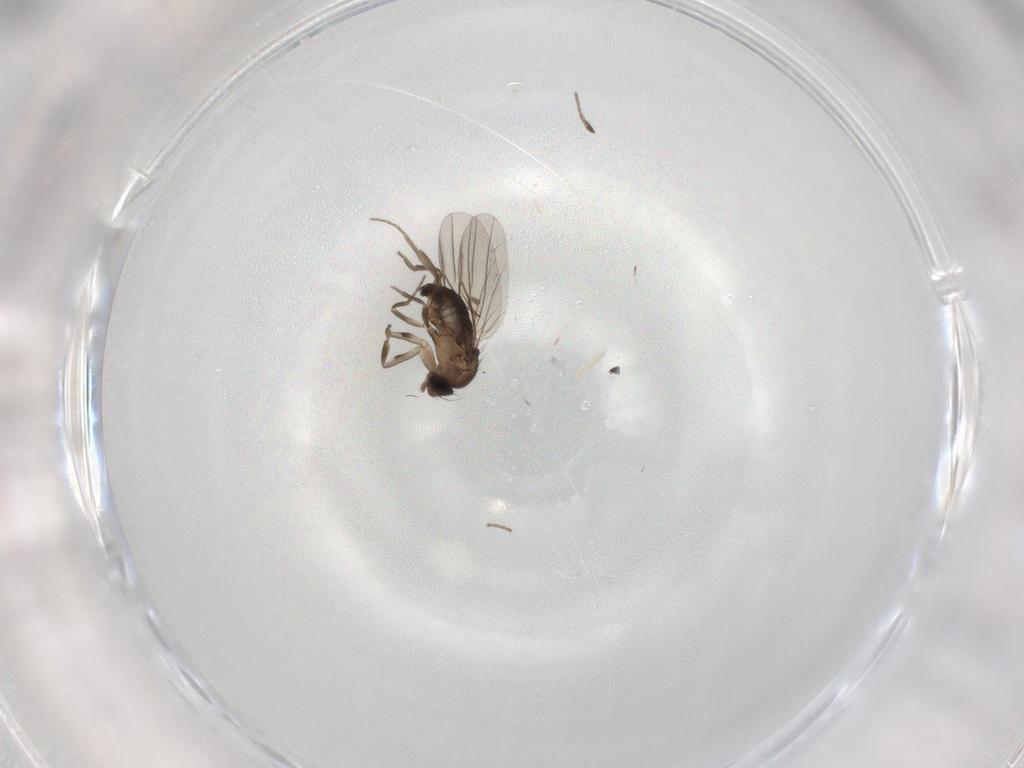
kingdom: Animalia
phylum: Arthropoda
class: Insecta
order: Diptera
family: Phoridae
